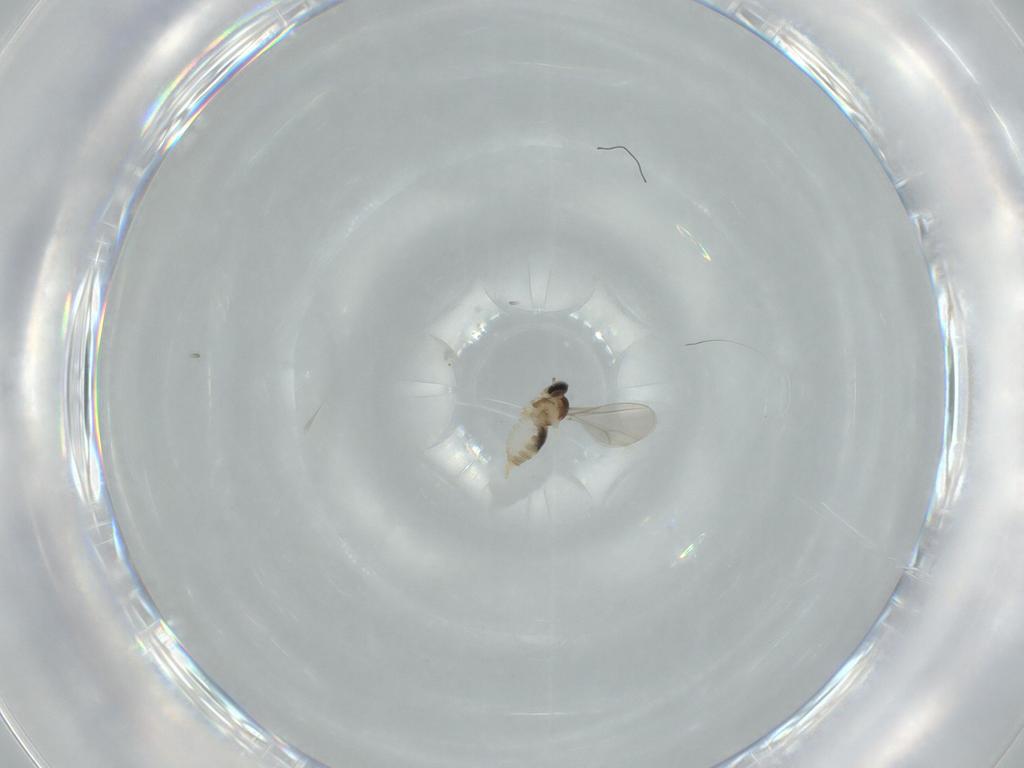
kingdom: Animalia
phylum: Arthropoda
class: Insecta
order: Diptera
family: Cecidomyiidae
